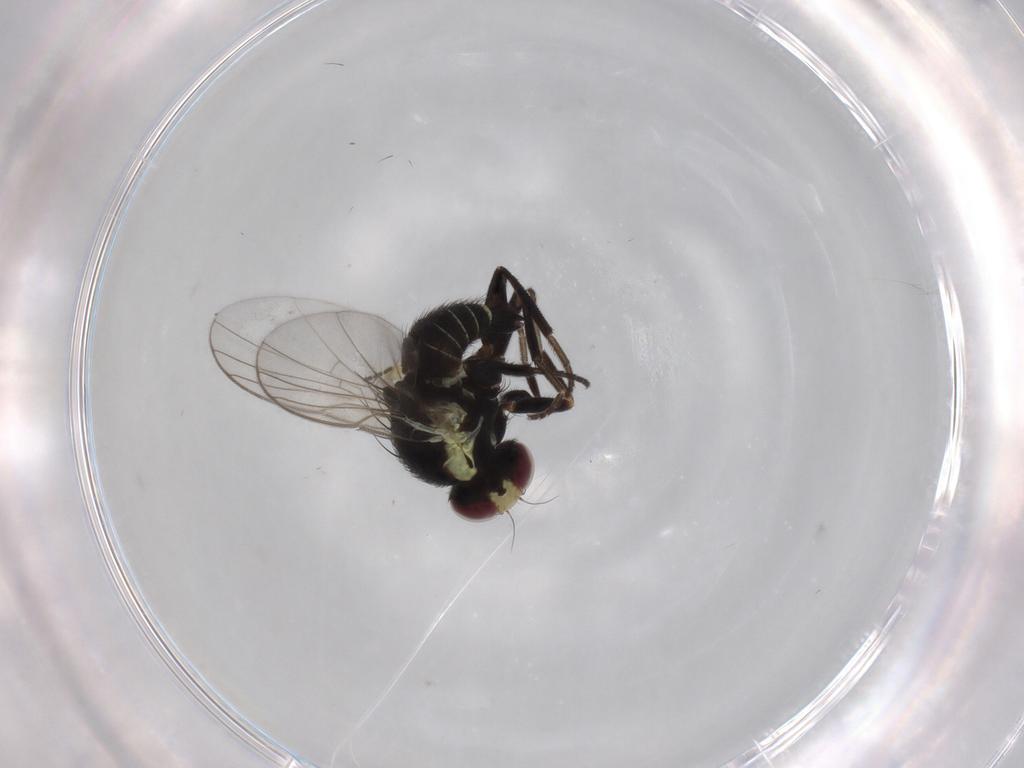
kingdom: Animalia
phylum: Arthropoda
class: Insecta
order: Diptera
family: Agromyzidae
